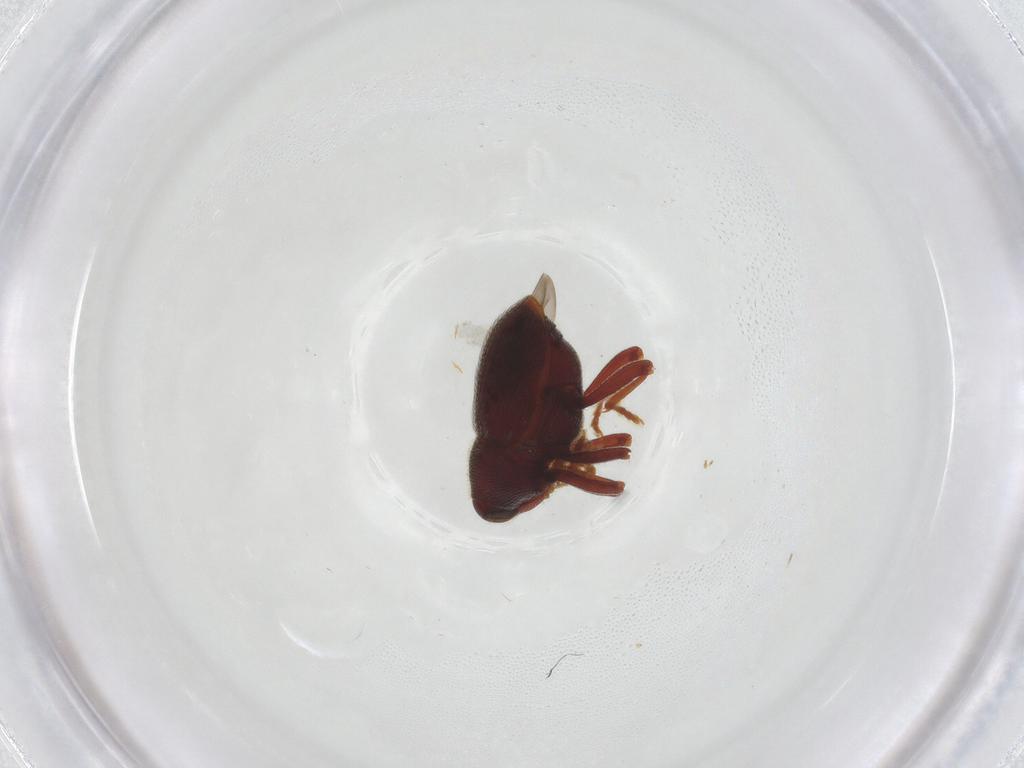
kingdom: Animalia
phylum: Arthropoda
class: Insecta
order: Coleoptera
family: Curculionidae
